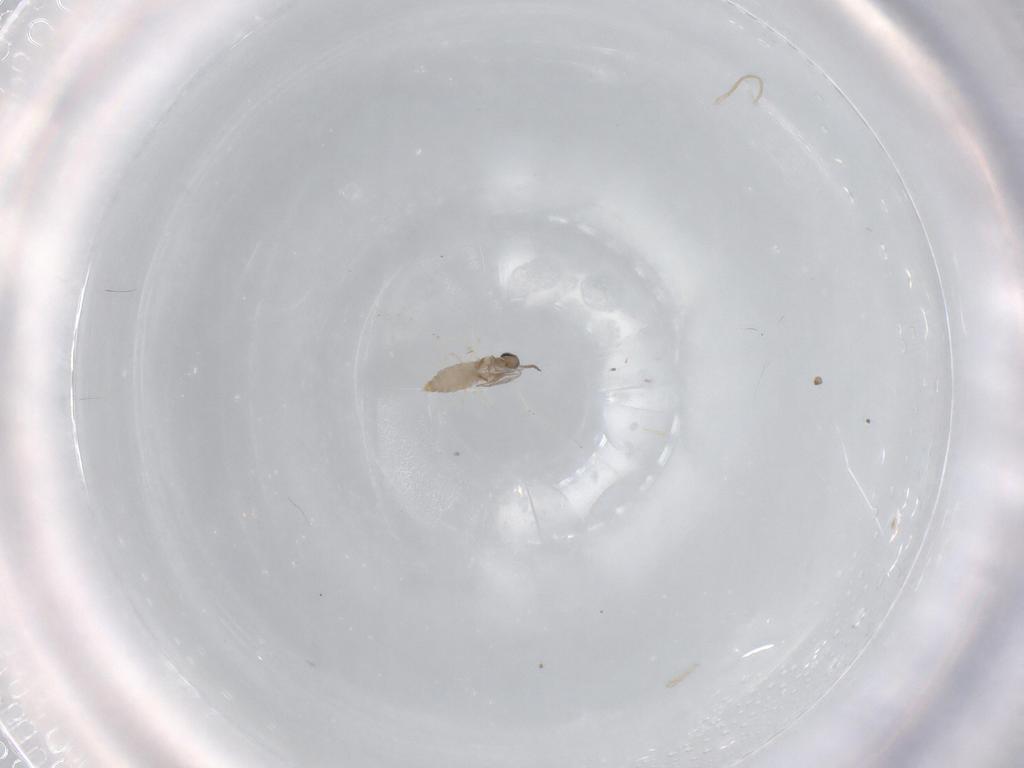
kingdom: Animalia
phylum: Arthropoda
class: Insecta
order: Diptera
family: Cecidomyiidae
